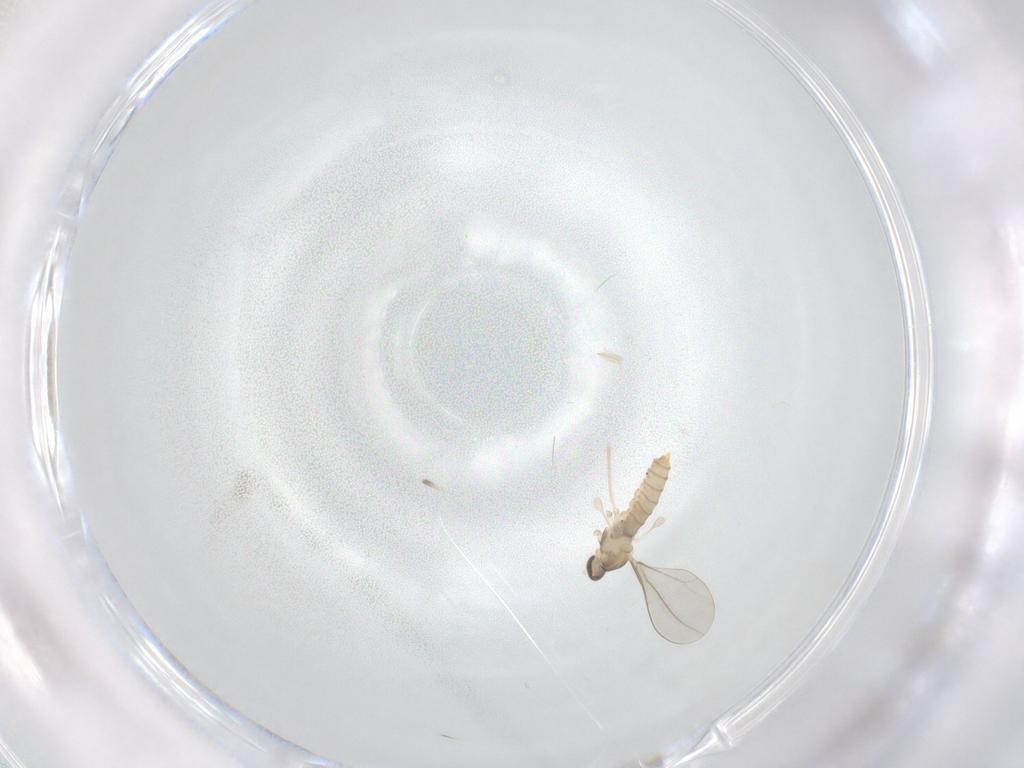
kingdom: Animalia
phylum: Arthropoda
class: Insecta
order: Diptera
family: Cecidomyiidae
